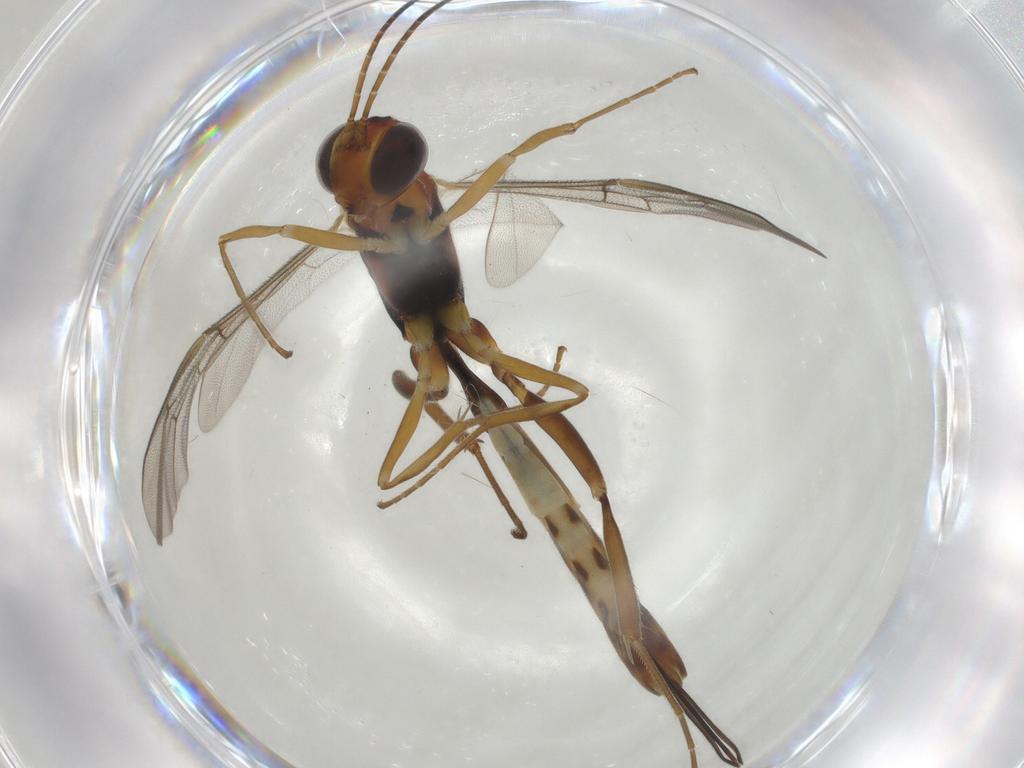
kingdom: Animalia
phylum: Arthropoda
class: Insecta
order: Hymenoptera
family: Ichneumonidae
